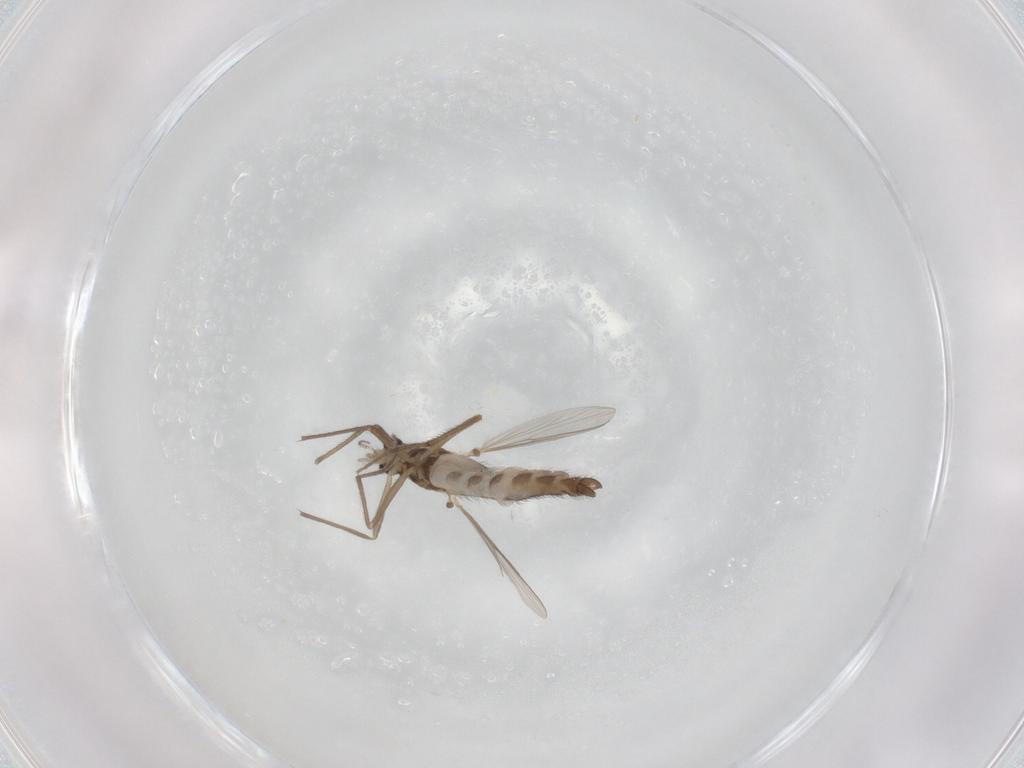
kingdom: Animalia
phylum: Arthropoda
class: Insecta
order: Diptera
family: Chironomidae
